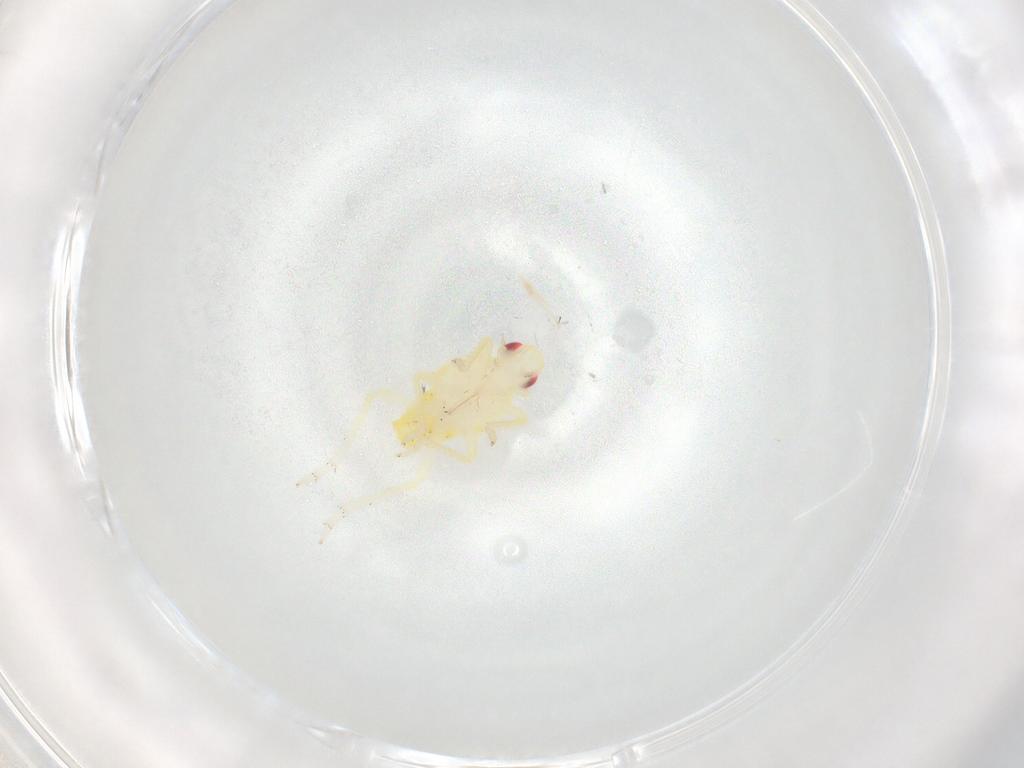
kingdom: Animalia
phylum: Arthropoda
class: Insecta
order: Hemiptera
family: Tropiduchidae
